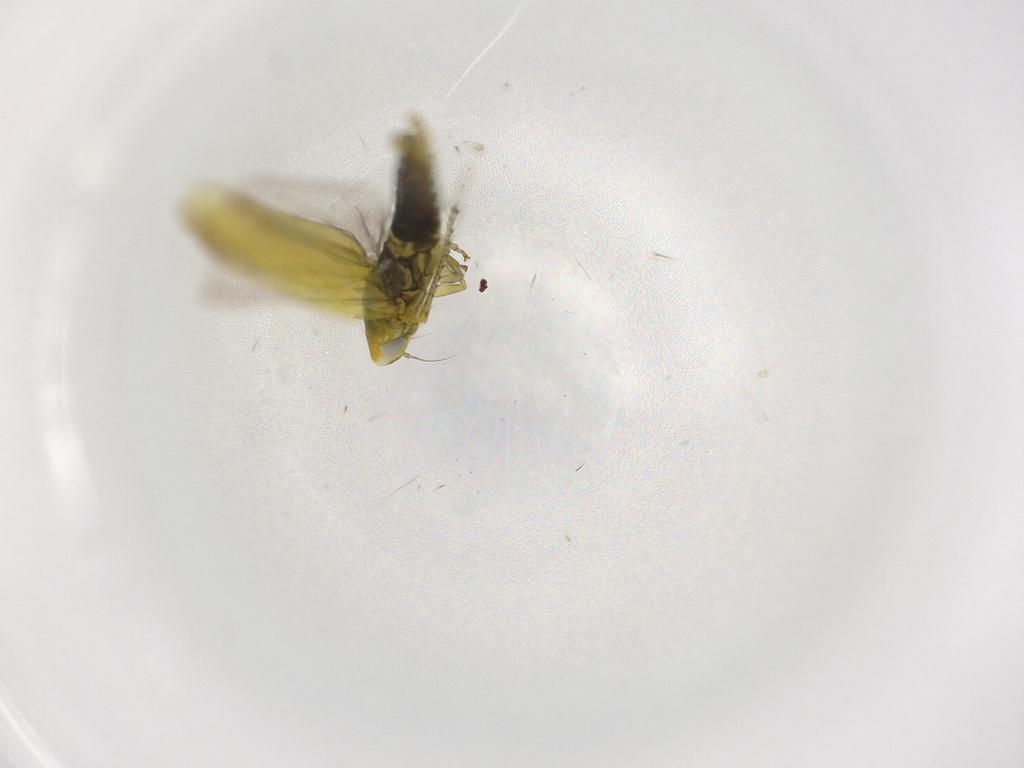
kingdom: Animalia
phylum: Arthropoda
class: Insecta
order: Hemiptera
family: Cicadellidae
